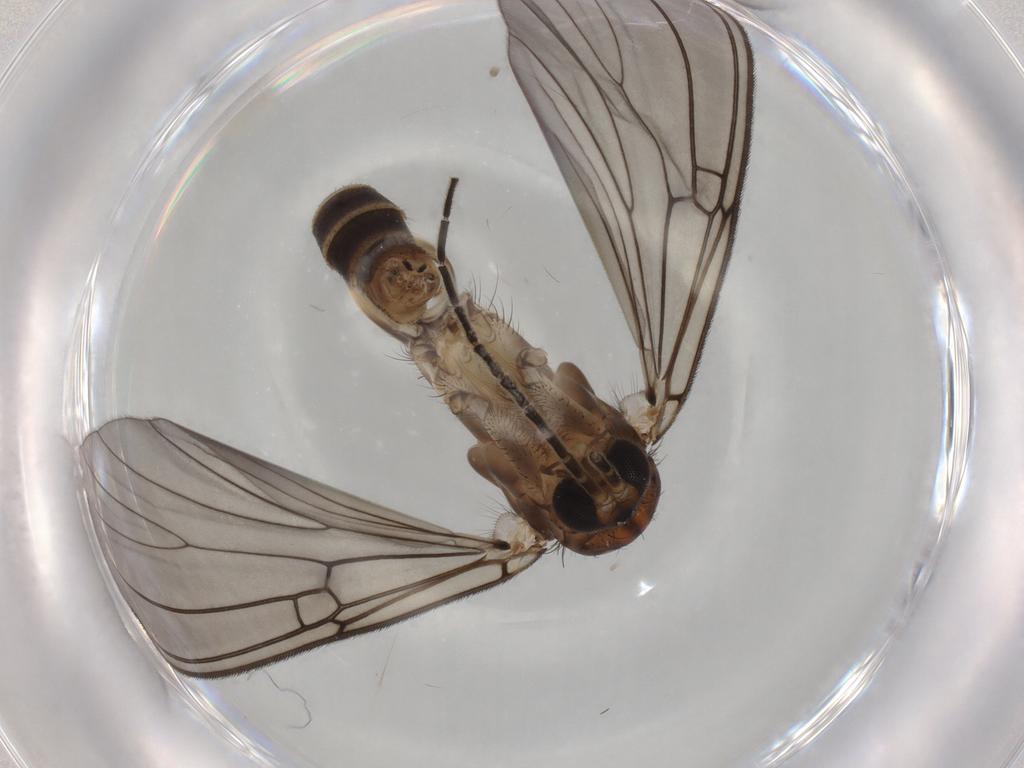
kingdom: Animalia
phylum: Arthropoda
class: Insecta
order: Diptera
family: Mycetophilidae
